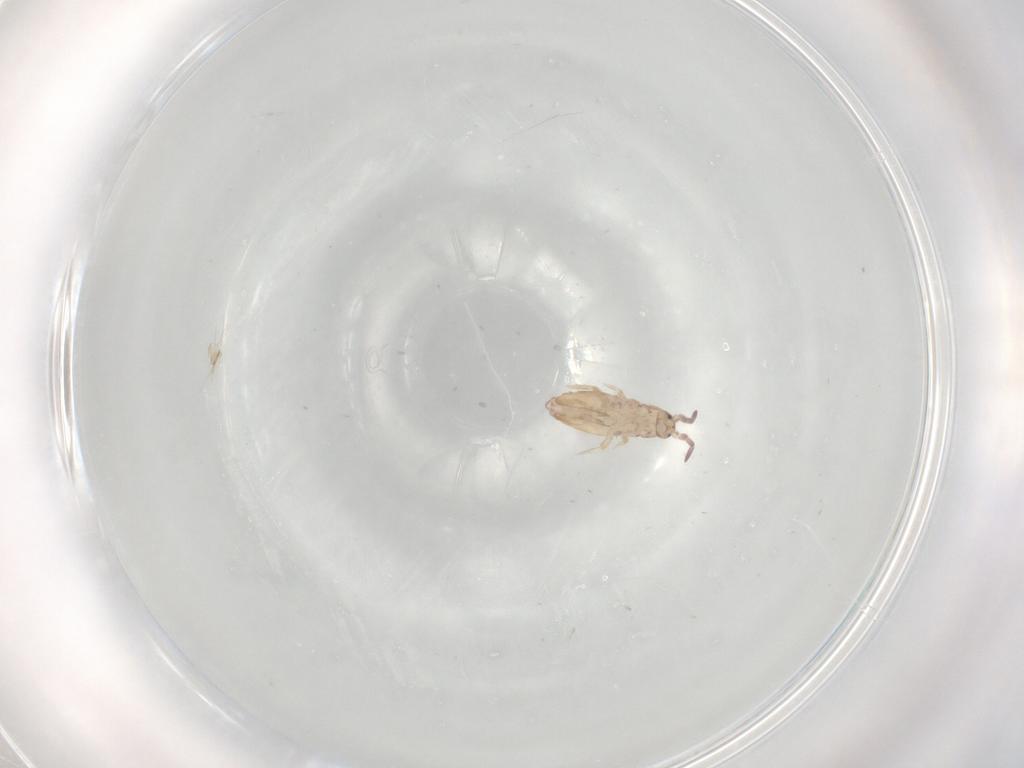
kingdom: Animalia
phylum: Arthropoda
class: Collembola
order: Entomobryomorpha
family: Entomobryidae
